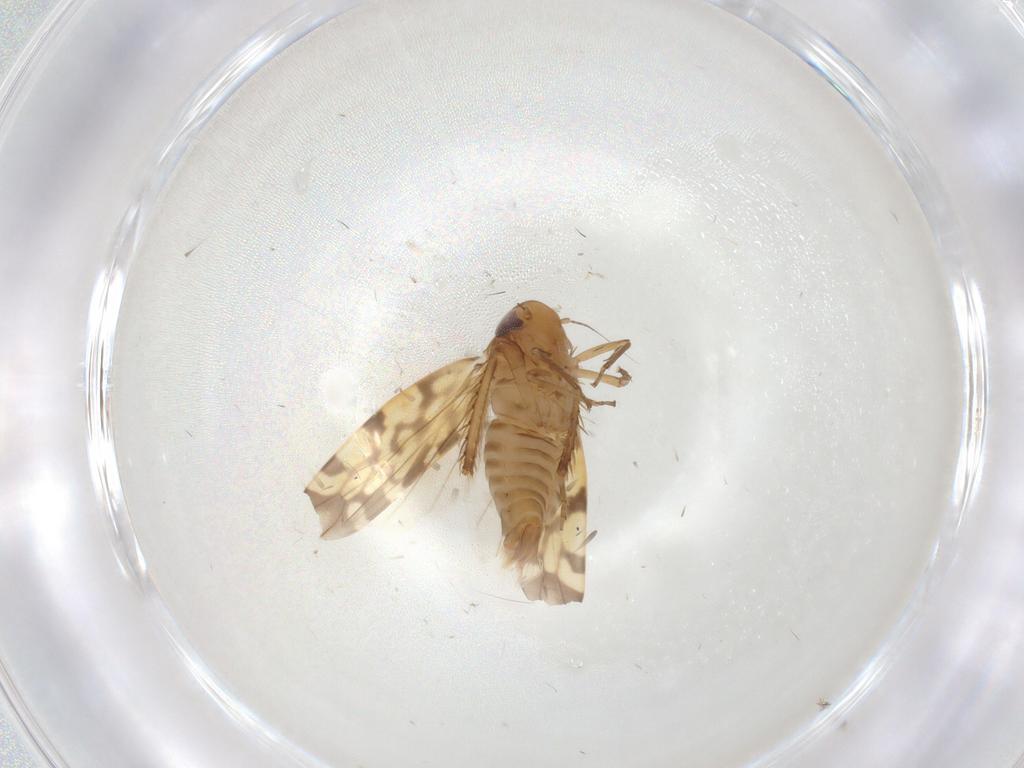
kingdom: Animalia
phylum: Arthropoda
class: Insecta
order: Hemiptera
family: Cicadellidae
